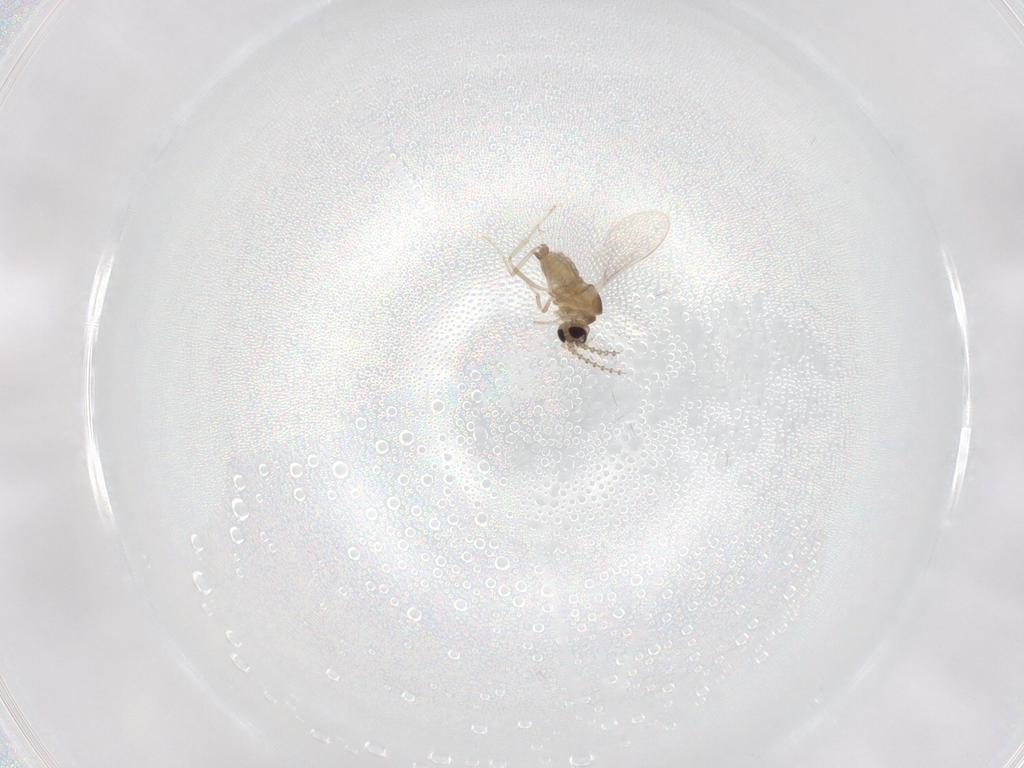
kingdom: Animalia
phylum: Arthropoda
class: Insecta
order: Diptera
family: Cecidomyiidae
